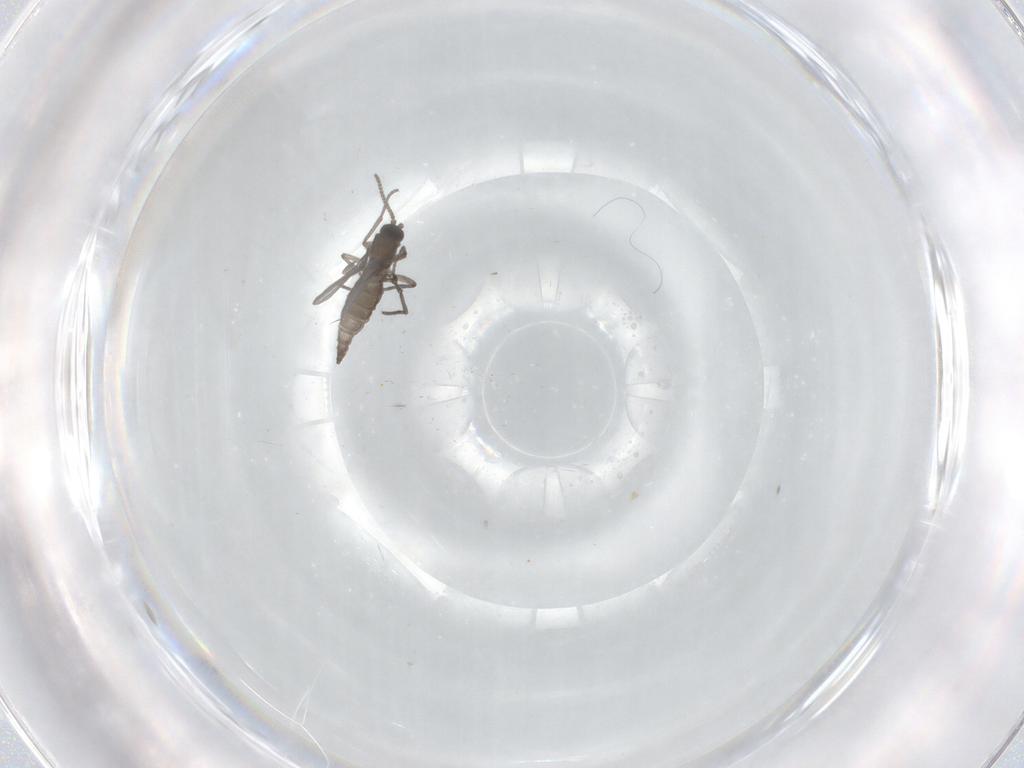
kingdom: Animalia
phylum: Arthropoda
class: Insecta
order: Diptera
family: Sciaridae
